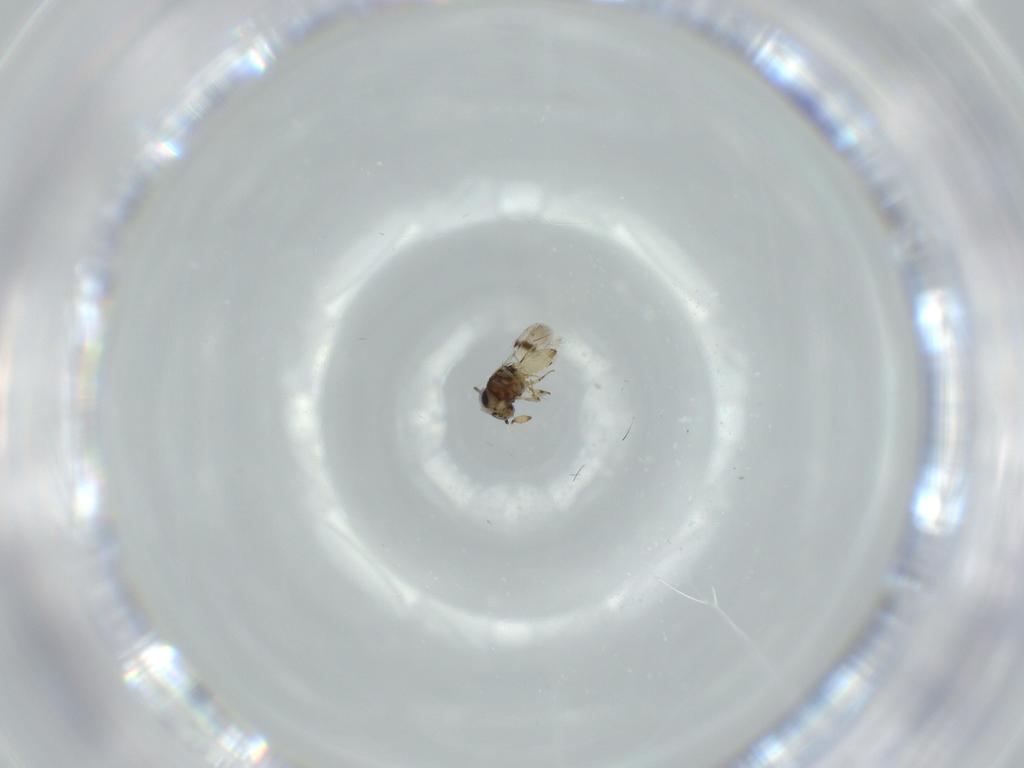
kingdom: Animalia
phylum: Arthropoda
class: Insecta
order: Hymenoptera
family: Scelionidae
